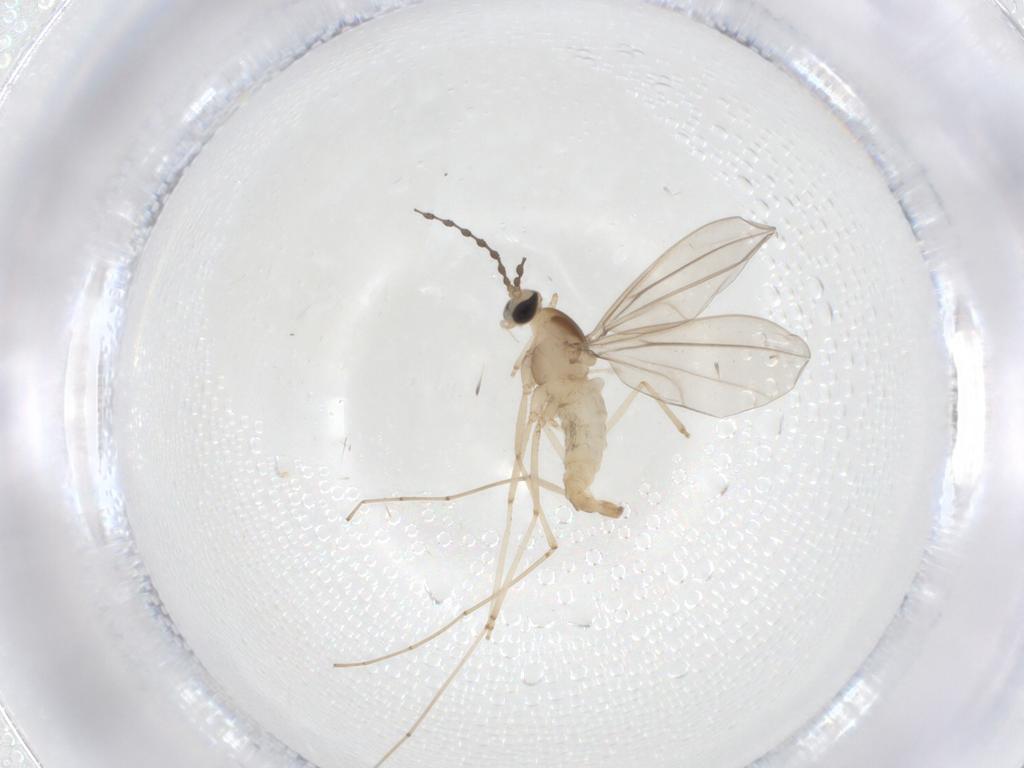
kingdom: Animalia
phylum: Arthropoda
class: Insecta
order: Diptera
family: Cecidomyiidae
